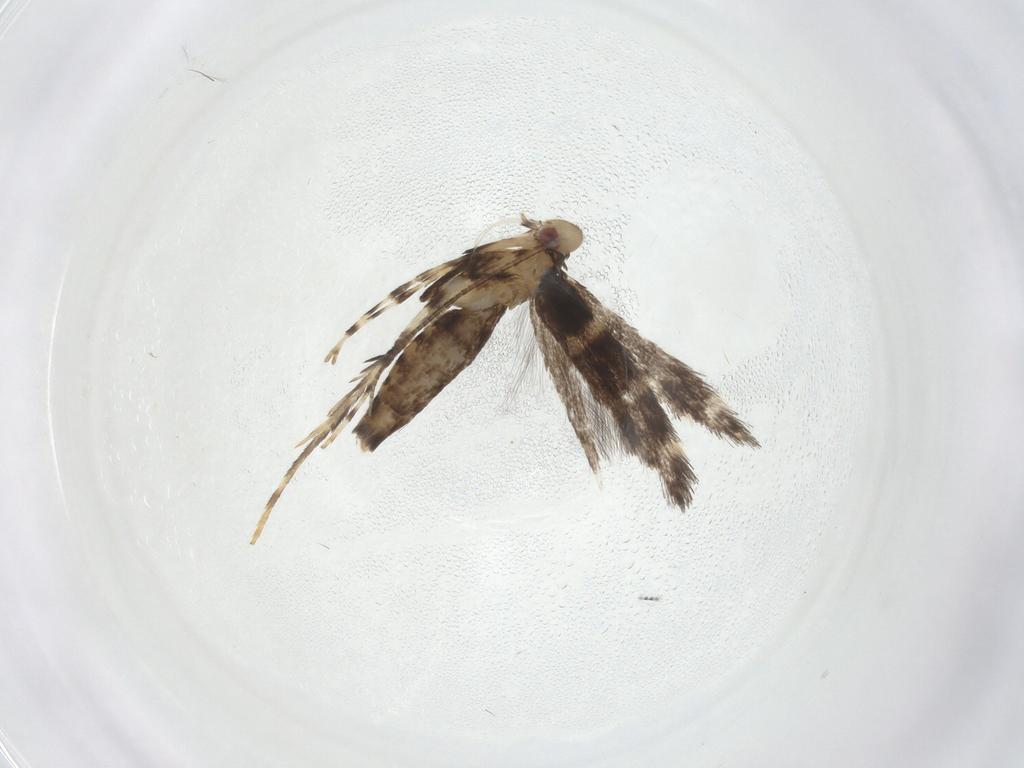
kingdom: Animalia
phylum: Arthropoda
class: Insecta
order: Lepidoptera
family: Gracillariidae
